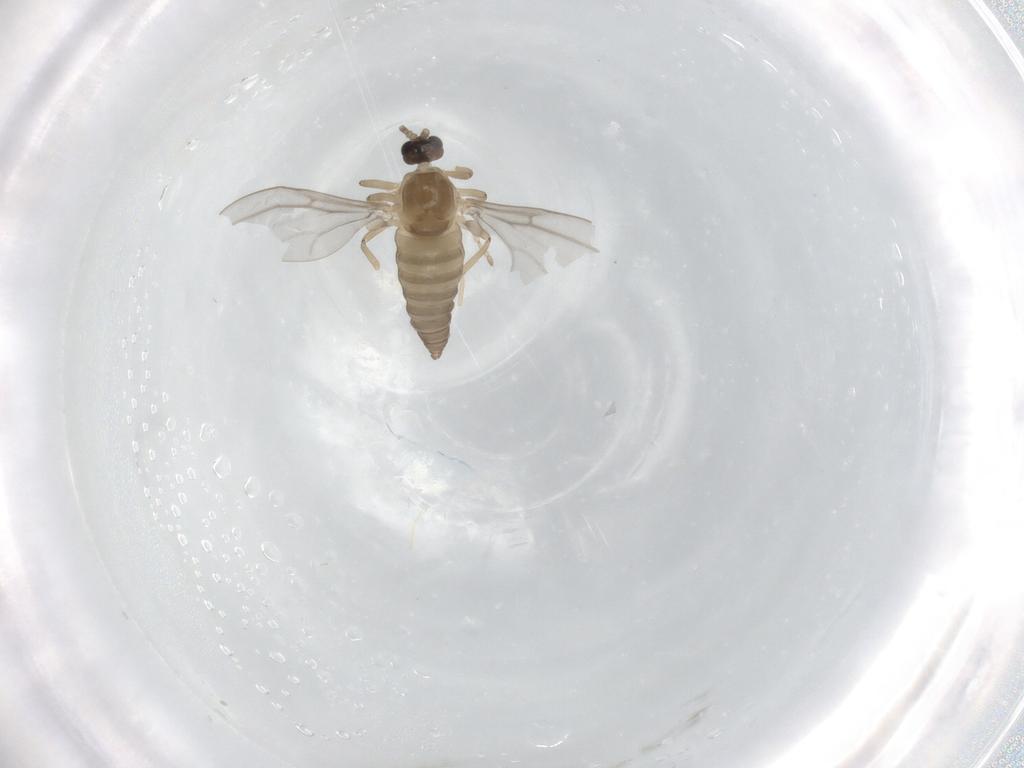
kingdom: Animalia
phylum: Arthropoda
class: Insecta
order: Diptera
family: Cecidomyiidae
